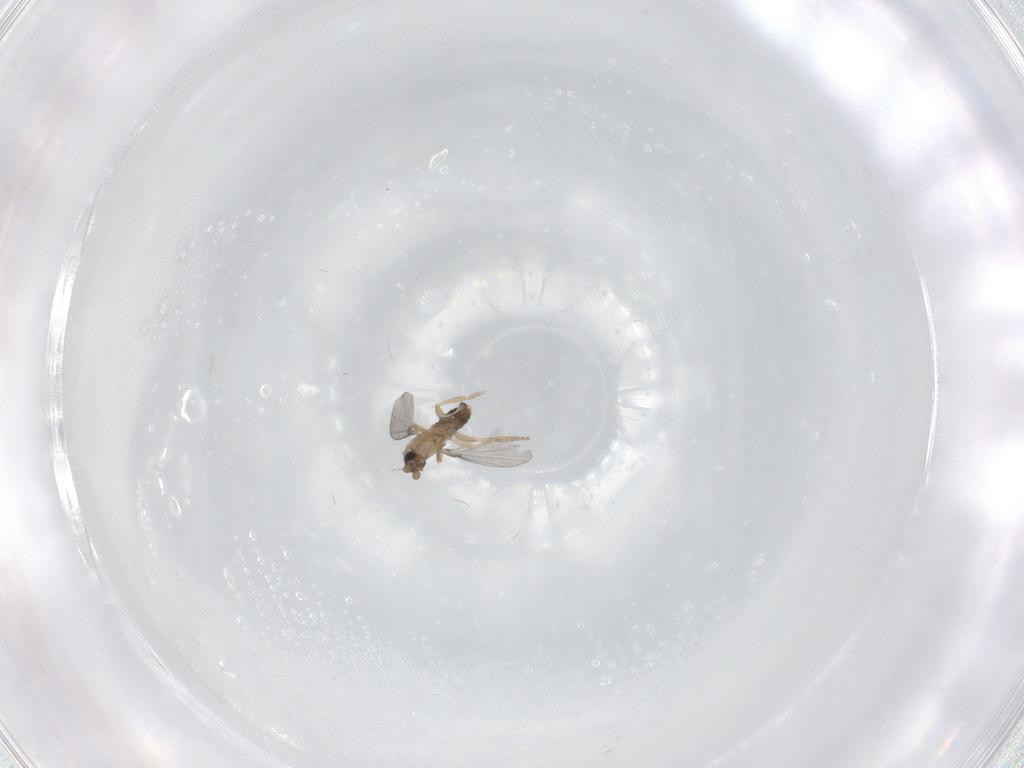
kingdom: Animalia
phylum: Arthropoda
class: Insecta
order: Diptera
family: Phoridae
